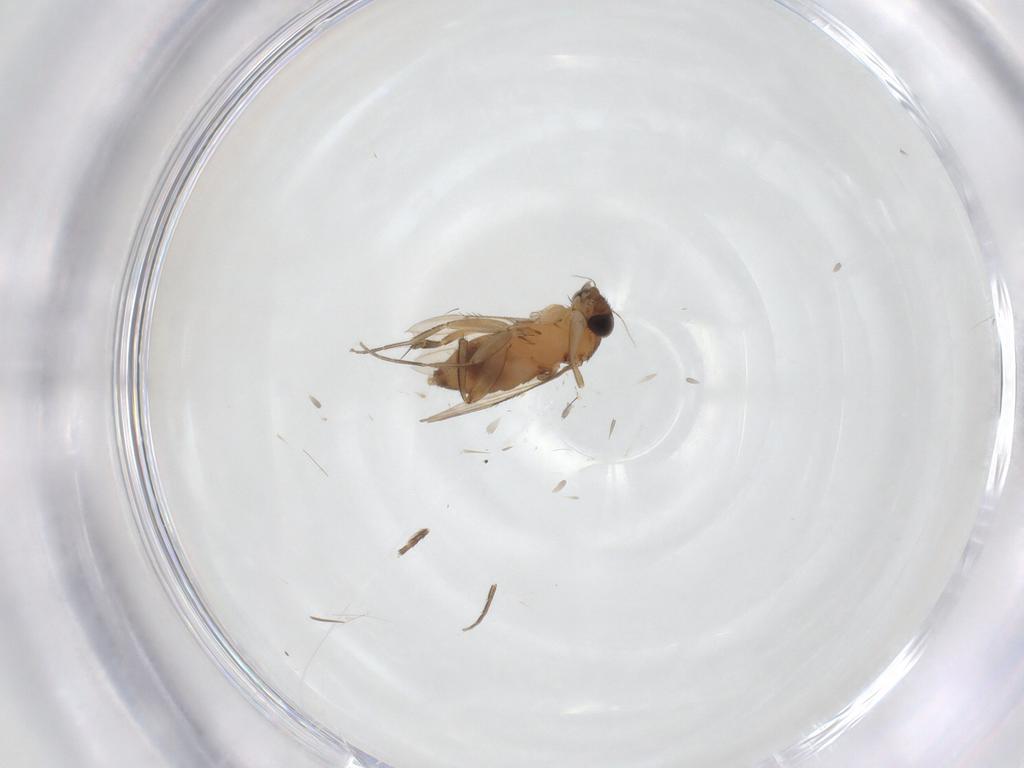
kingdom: Animalia
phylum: Arthropoda
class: Insecta
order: Diptera
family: Phoridae
